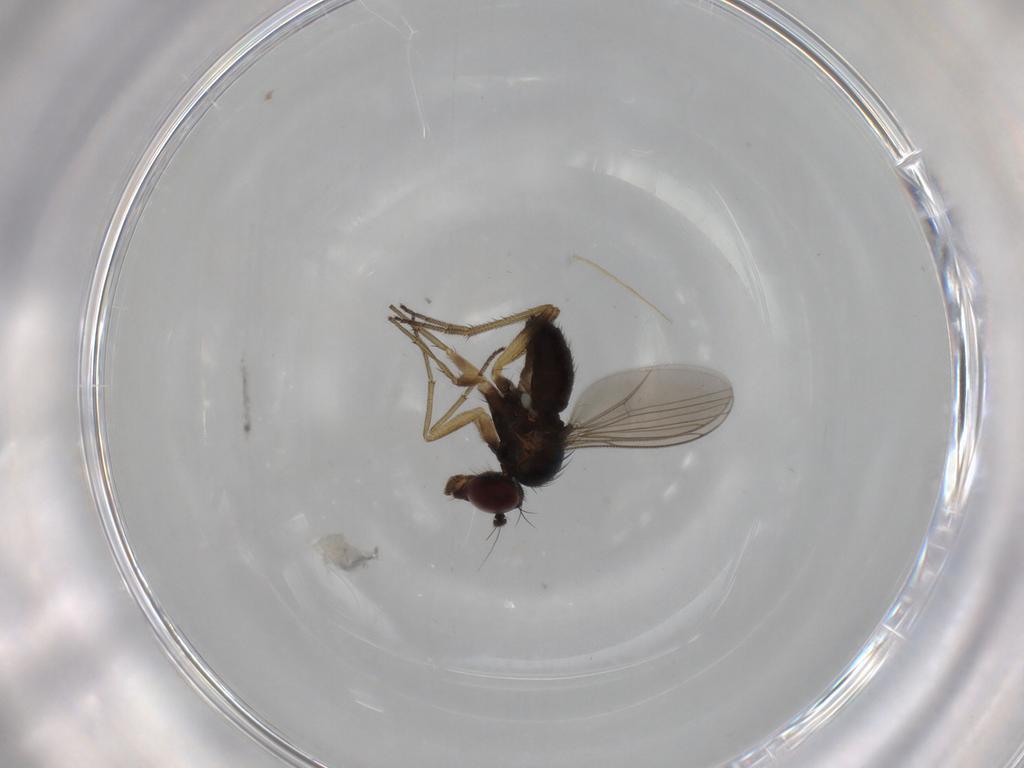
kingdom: Animalia
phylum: Arthropoda
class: Insecta
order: Diptera
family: Dolichopodidae
